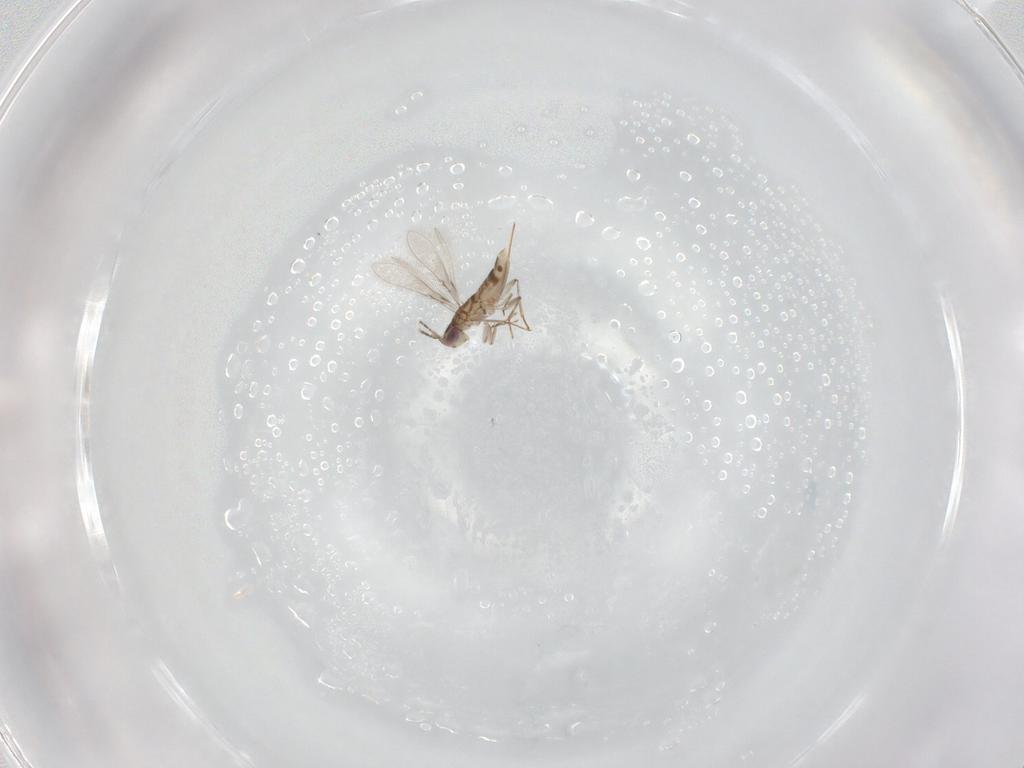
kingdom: Animalia
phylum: Arthropoda
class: Insecta
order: Hymenoptera
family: Mymaridae
